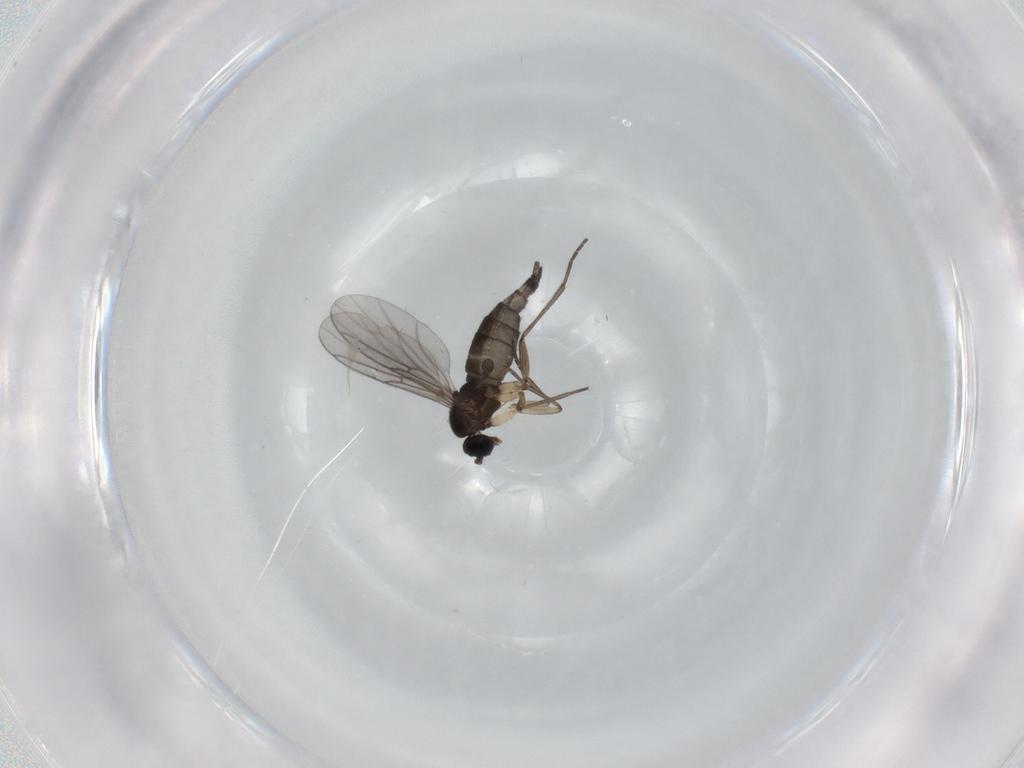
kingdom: Animalia
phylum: Arthropoda
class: Insecta
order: Diptera
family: Sciaridae
